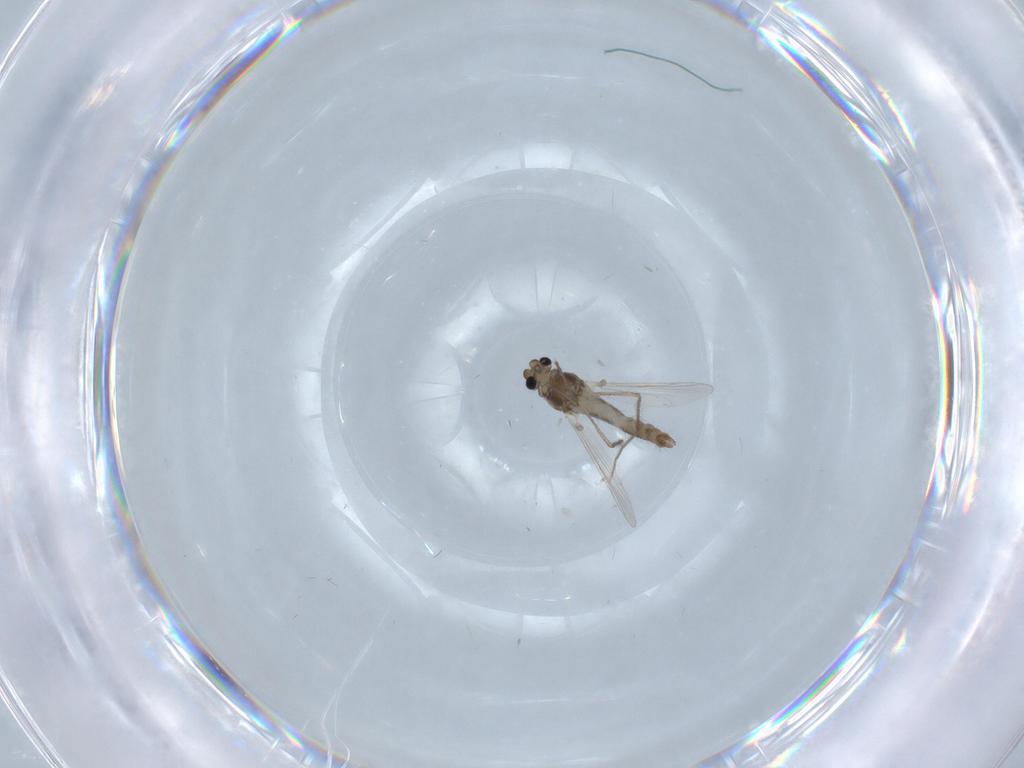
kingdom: Animalia
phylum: Arthropoda
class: Insecta
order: Diptera
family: Chironomidae
